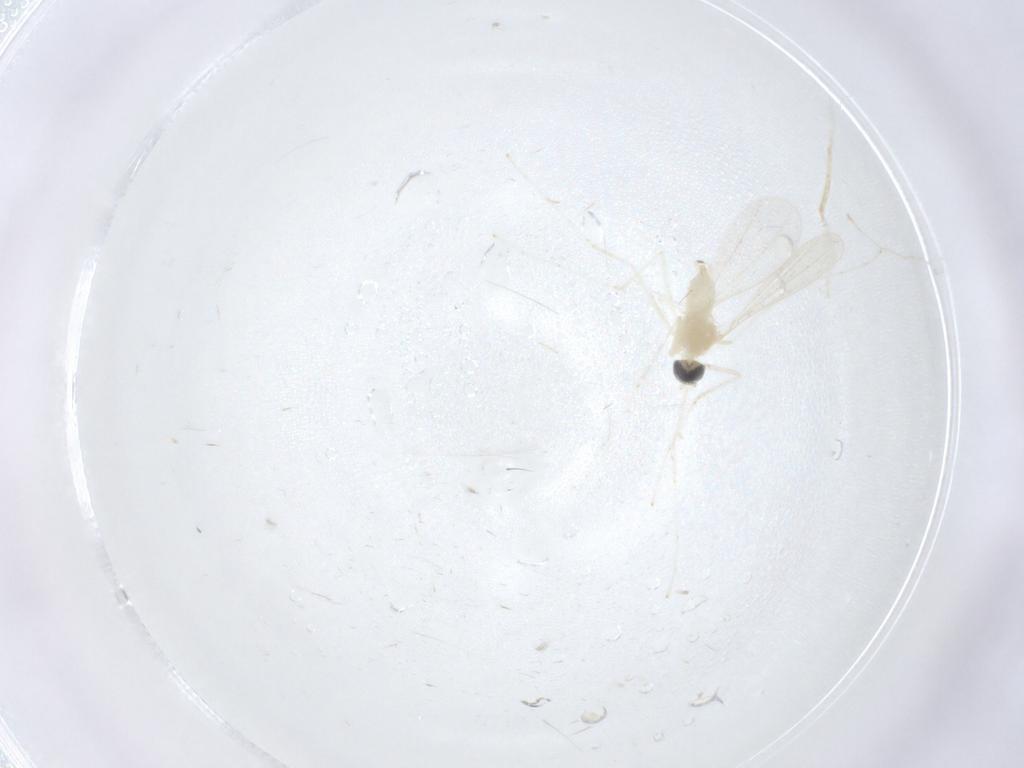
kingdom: Animalia
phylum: Arthropoda
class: Insecta
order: Diptera
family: Cecidomyiidae
